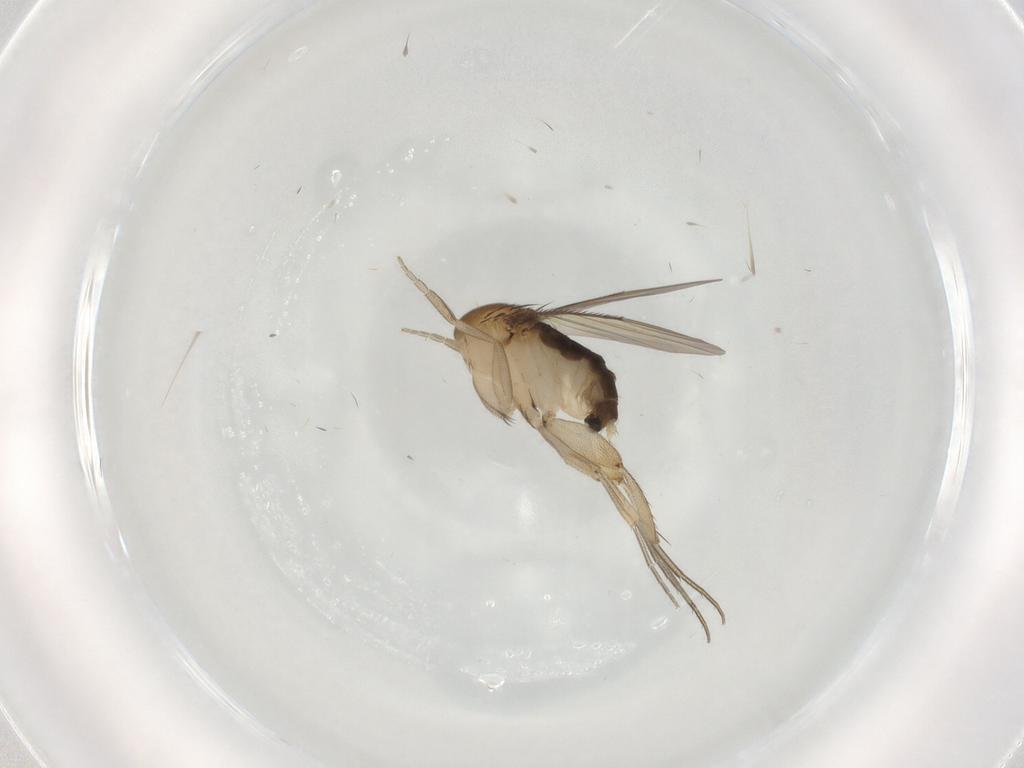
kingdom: Animalia
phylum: Arthropoda
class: Insecta
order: Diptera
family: Phoridae
